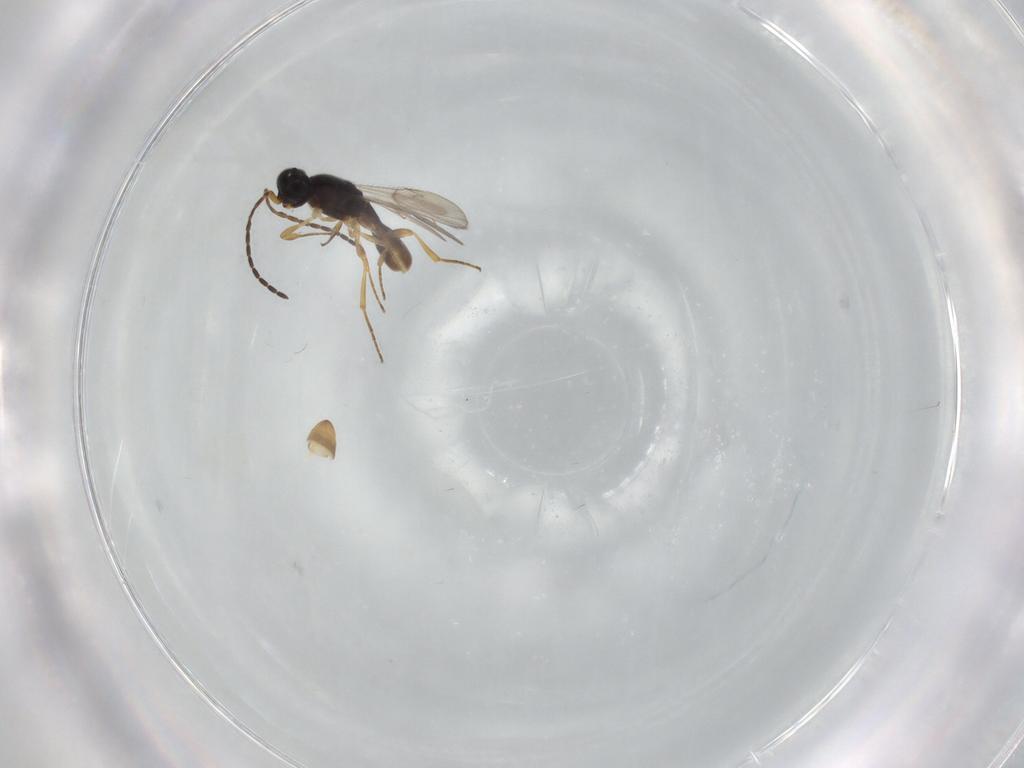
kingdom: Animalia
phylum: Arthropoda
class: Insecta
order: Hymenoptera
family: Scelionidae
